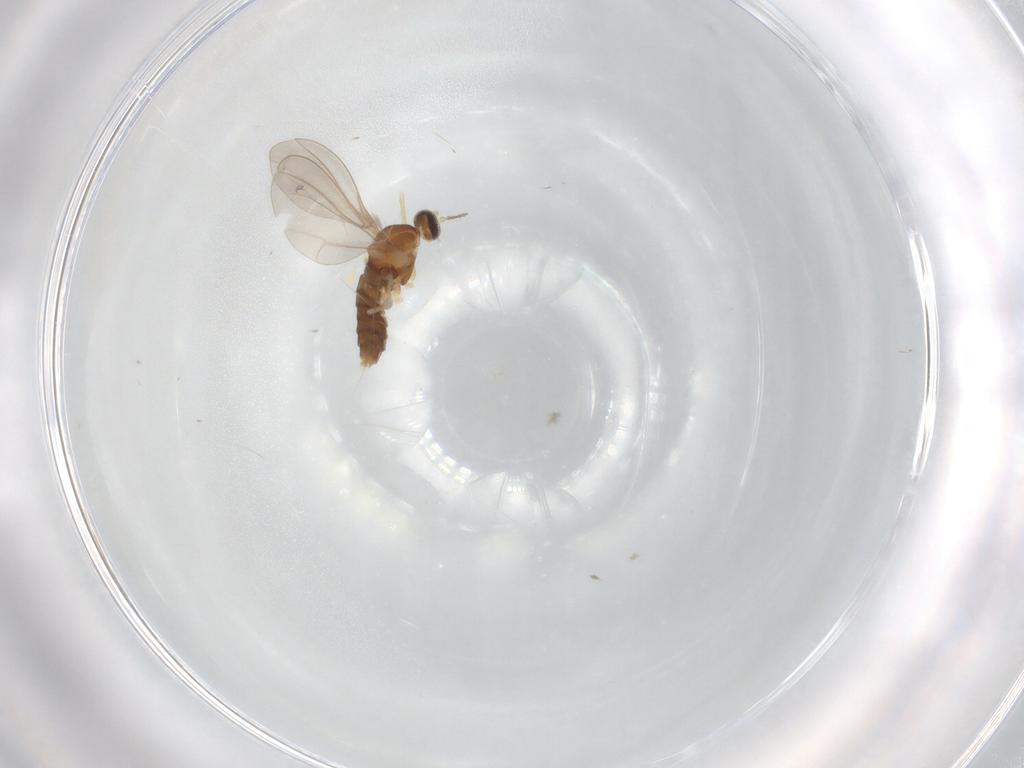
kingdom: Animalia
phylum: Arthropoda
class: Insecta
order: Diptera
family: Cecidomyiidae
